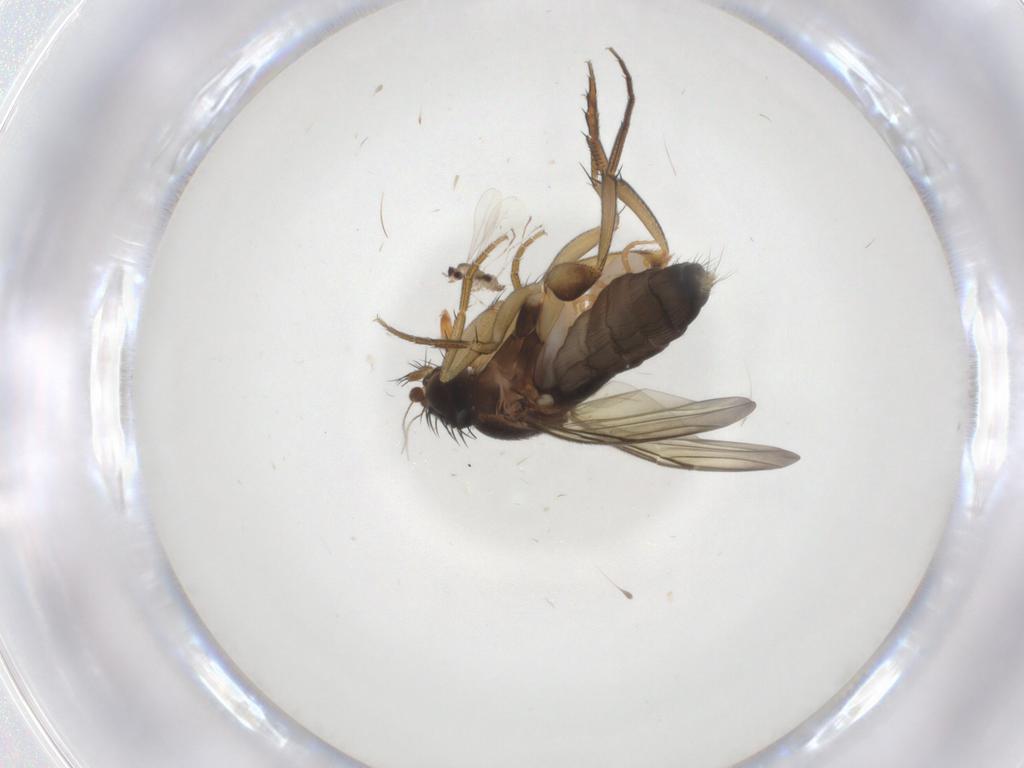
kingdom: Animalia
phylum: Arthropoda
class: Insecta
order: Diptera
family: Phoridae
